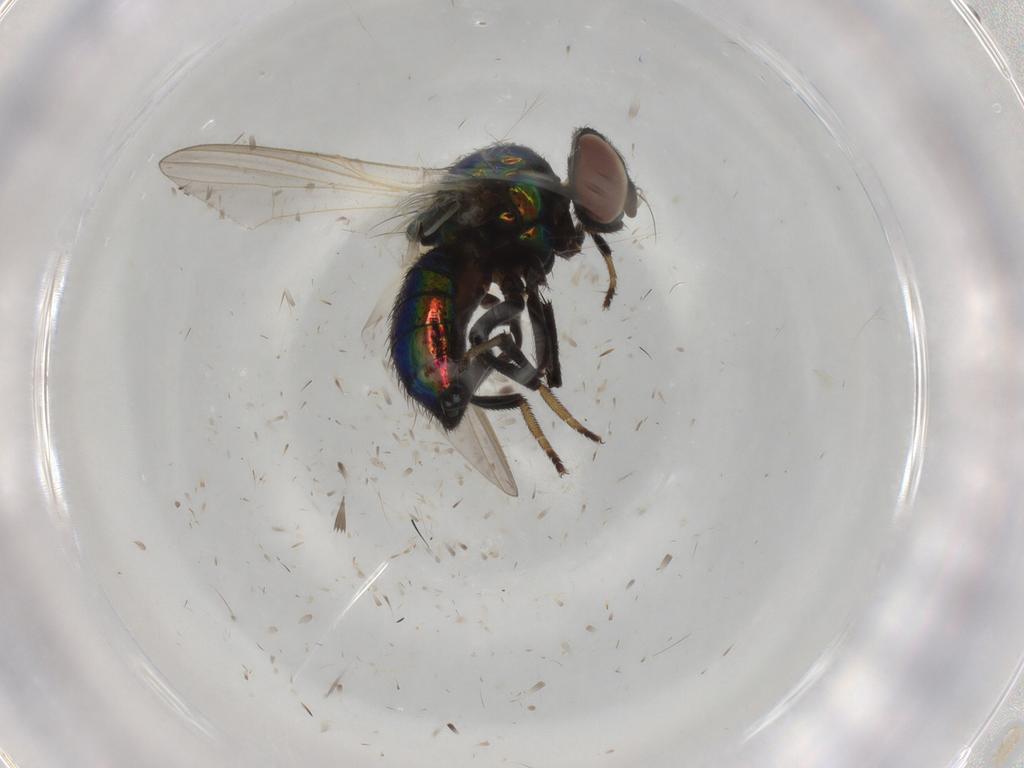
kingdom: Animalia
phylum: Arthropoda
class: Insecta
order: Diptera
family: Lonchaeidae
